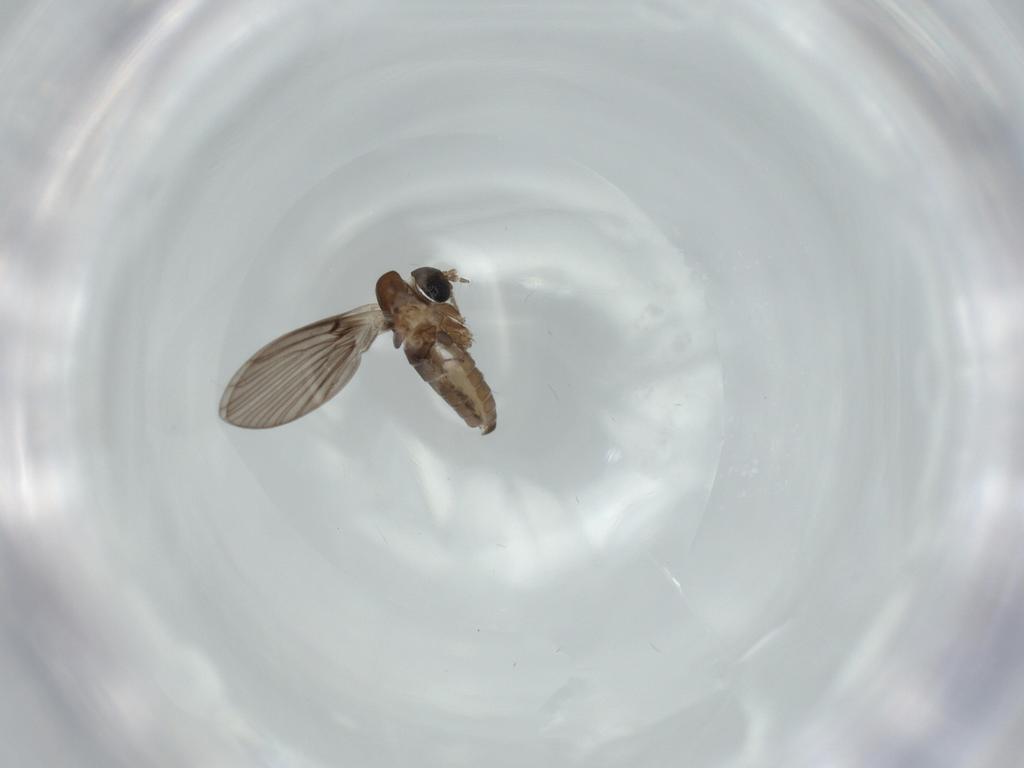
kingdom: Animalia
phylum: Arthropoda
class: Insecta
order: Diptera
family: Psychodidae
